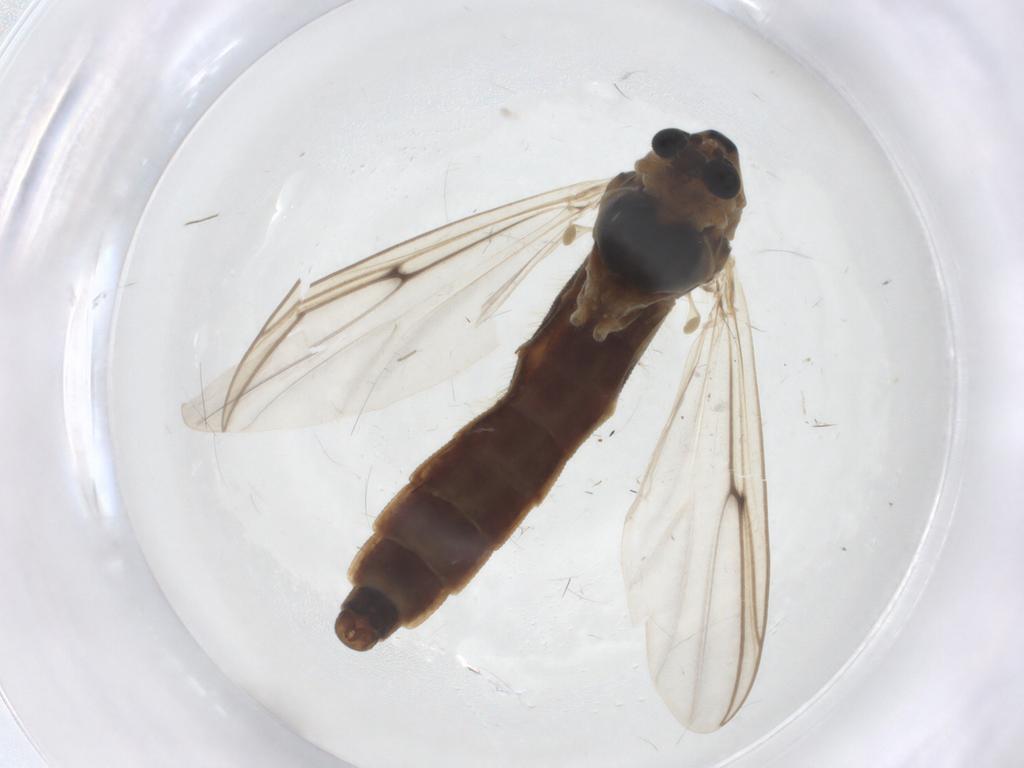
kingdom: Animalia
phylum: Arthropoda
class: Insecta
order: Diptera
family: Chironomidae
